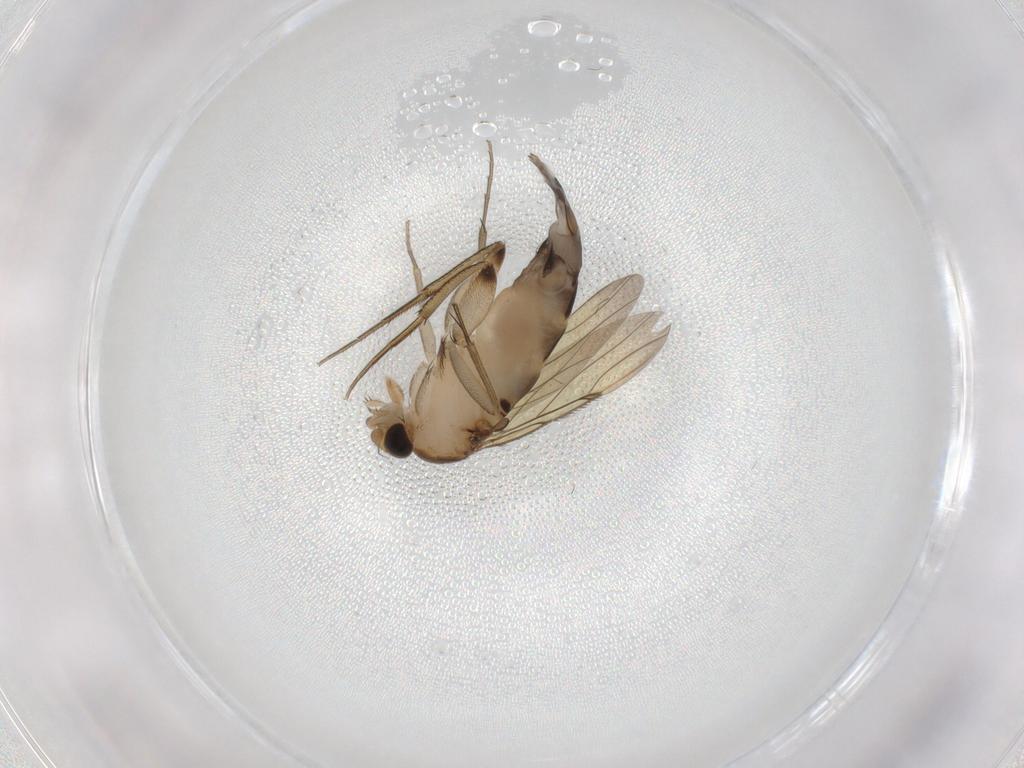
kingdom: Animalia
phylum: Arthropoda
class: Insecta
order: Diptera
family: Phoridae
